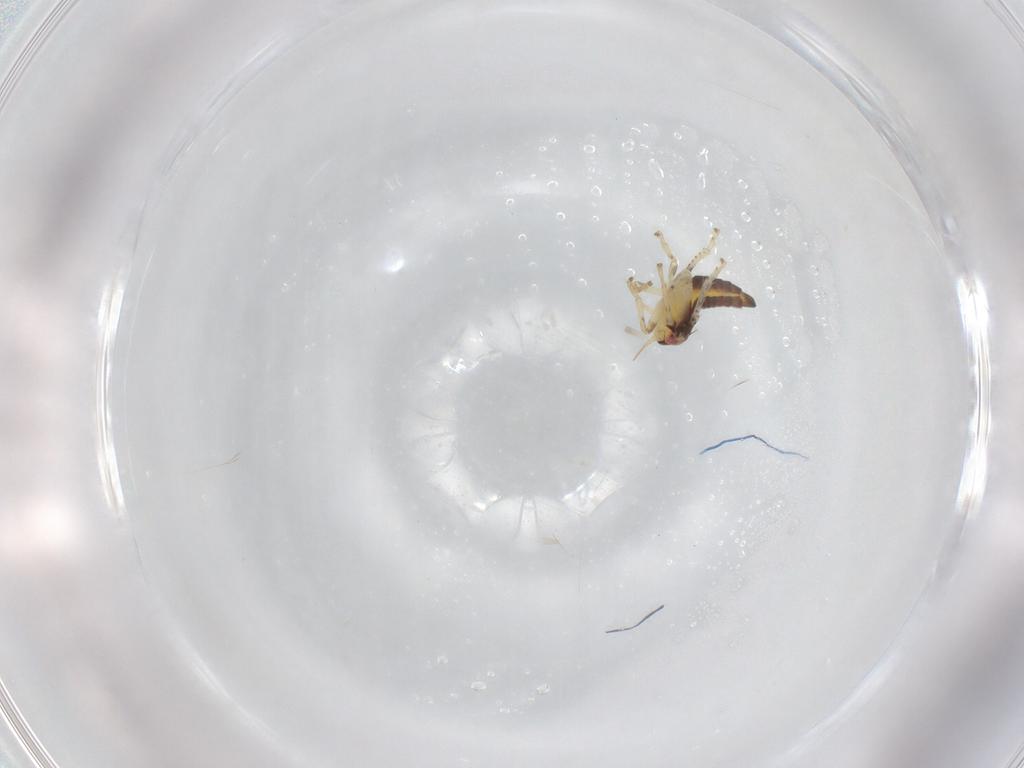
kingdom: Animalia
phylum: Arthropoda
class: Insecta
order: Hemiptera
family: Cicadellidae
